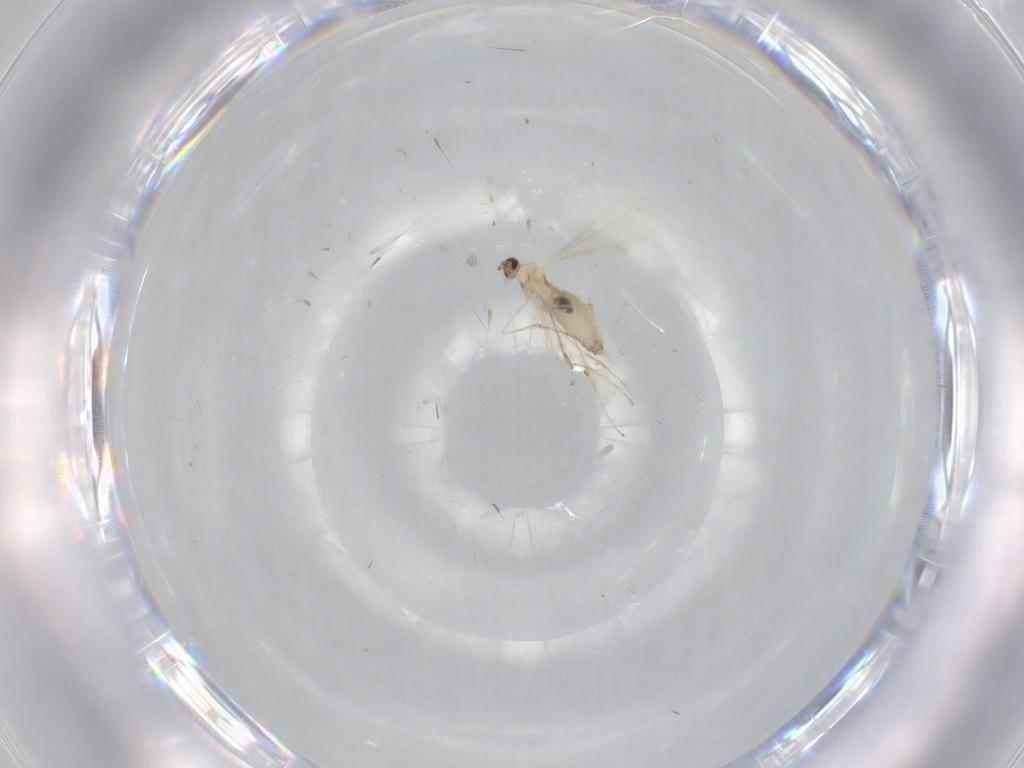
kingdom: Animalia
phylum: Arthropoda
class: Insecta
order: Diptera
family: Cecidomyiidae
